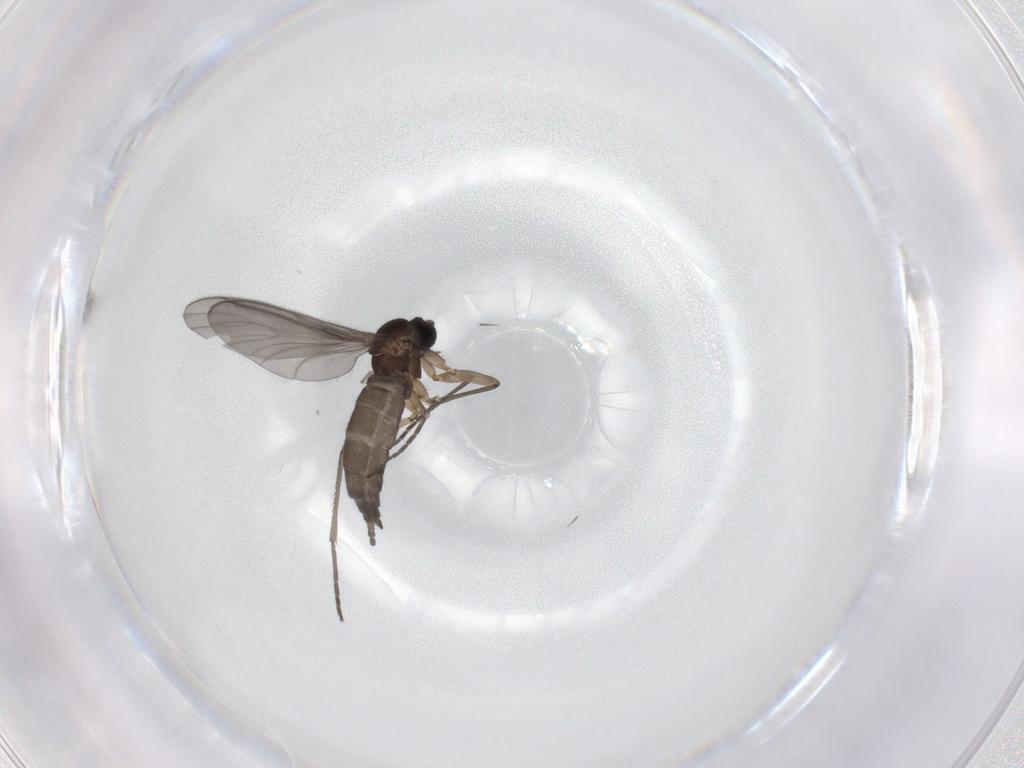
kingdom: Animalia
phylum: Arthropoda
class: Insecta
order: Diptera
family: Sciaridae
